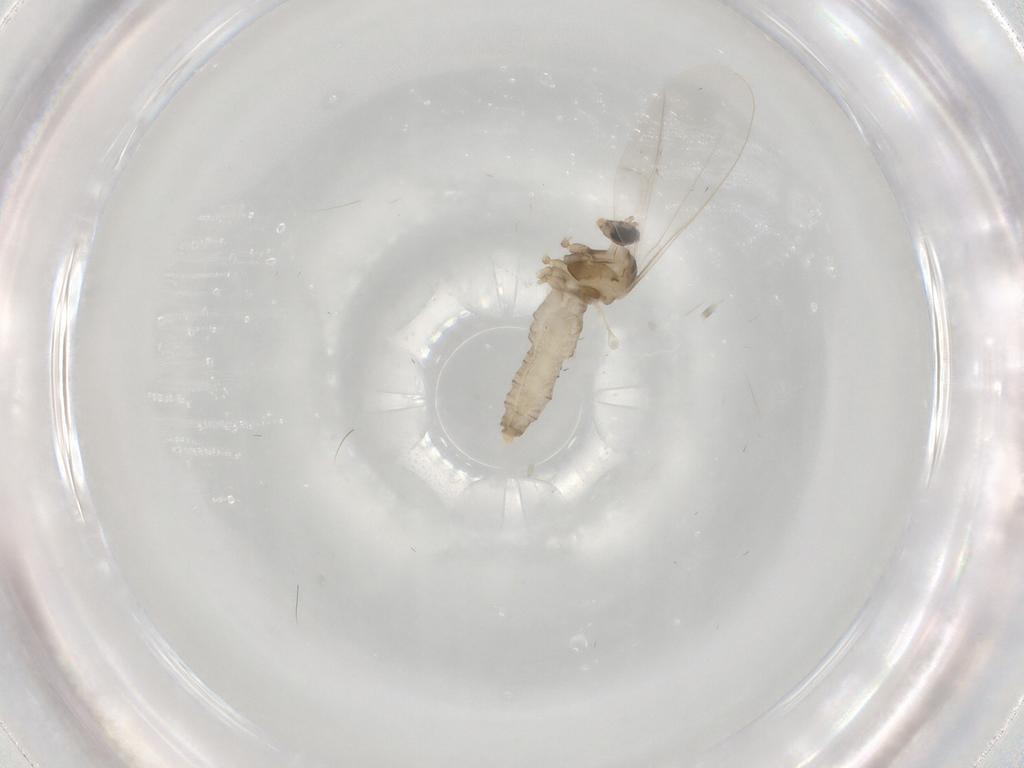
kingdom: Animalia
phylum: Arthropoda
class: Insecta
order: Diptera
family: Cecidomyiidae
